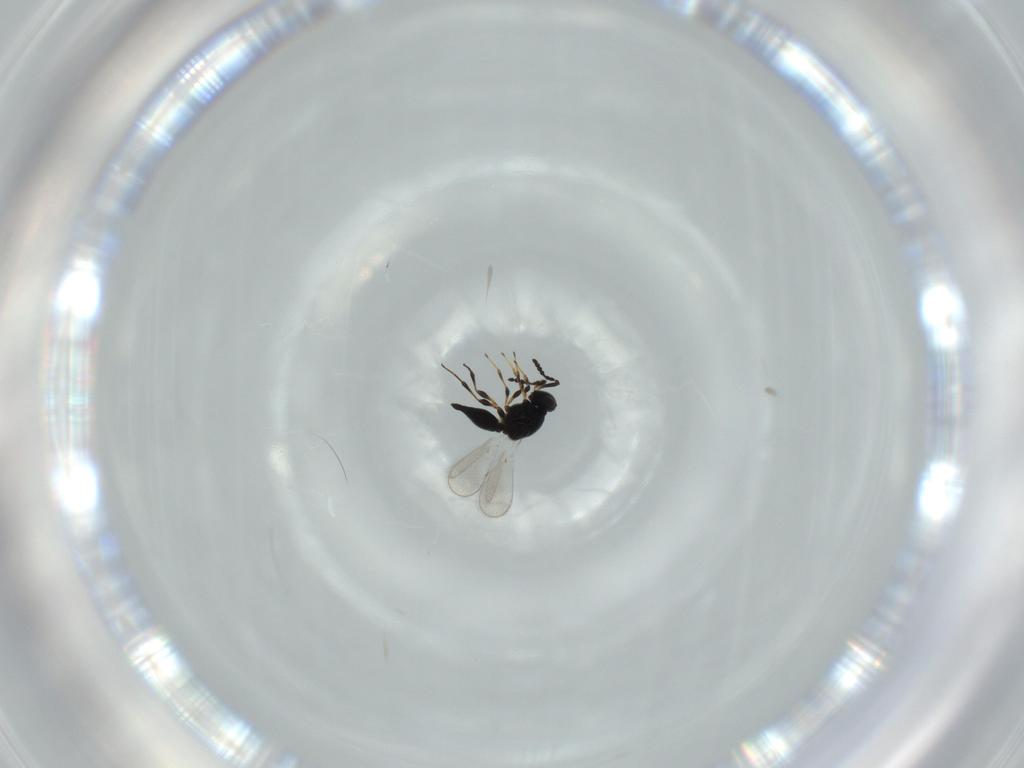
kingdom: Animalia
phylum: Arthropoda
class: Insecta
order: Hymenoptera
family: Platygastridae
